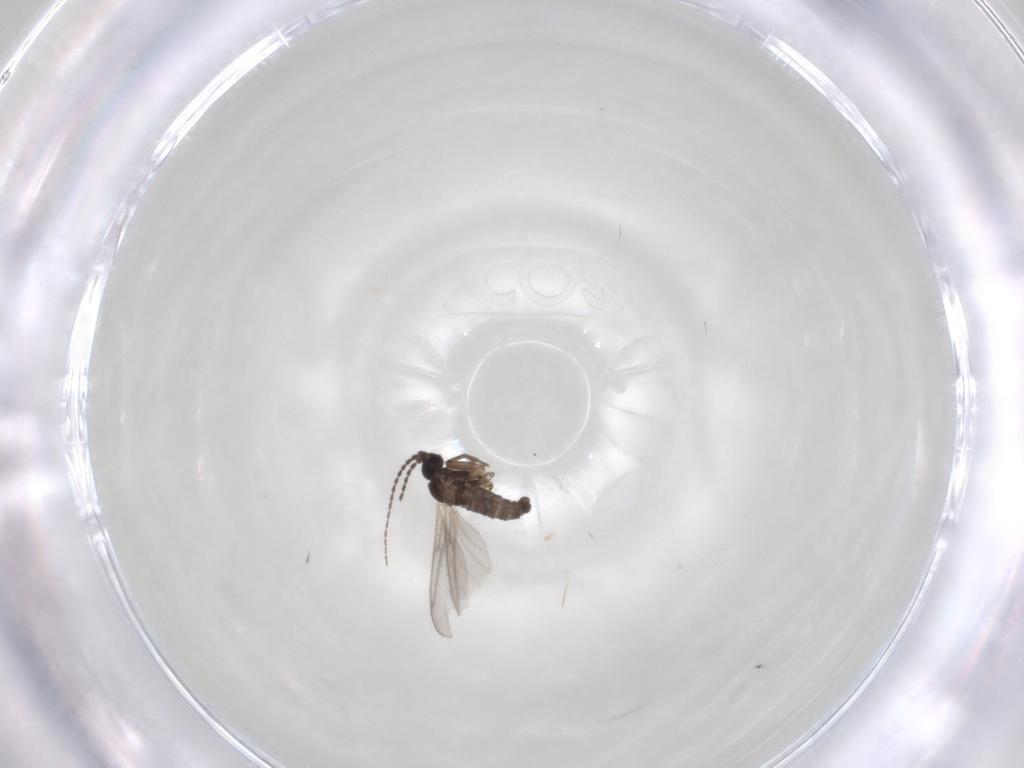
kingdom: Animalia
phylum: Arthropoda
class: Insecta
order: Diptera
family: Sciaridae
